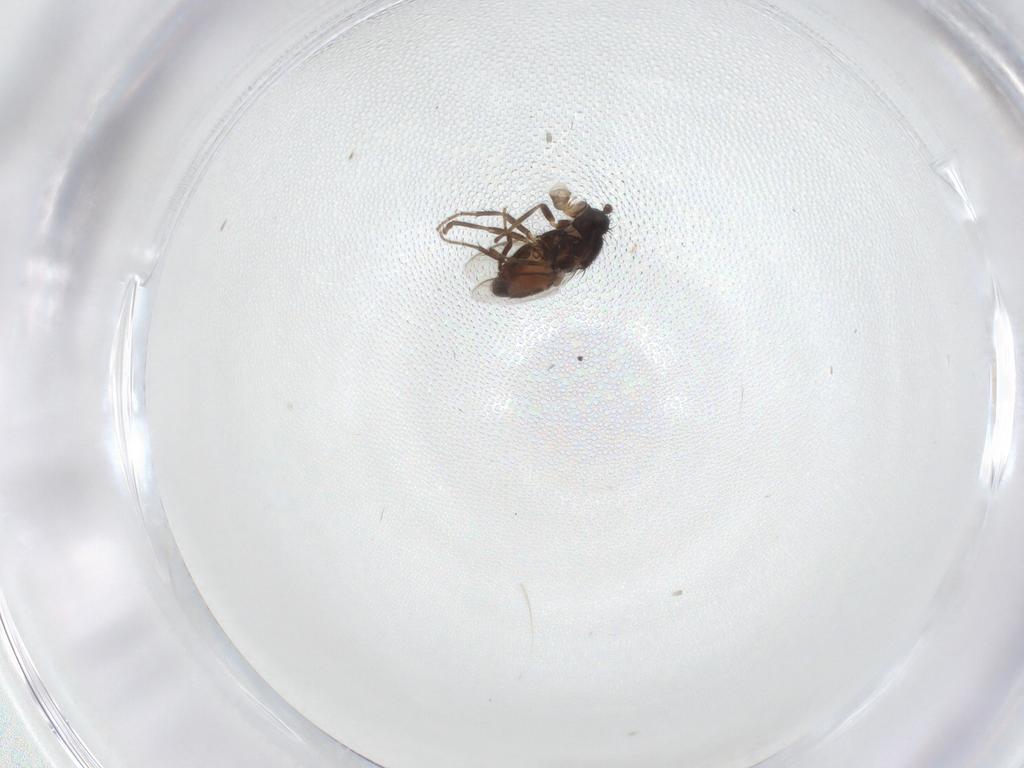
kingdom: Animalia
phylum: Arthropoda
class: Insecta
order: Diptera
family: Sphaeroceridae
